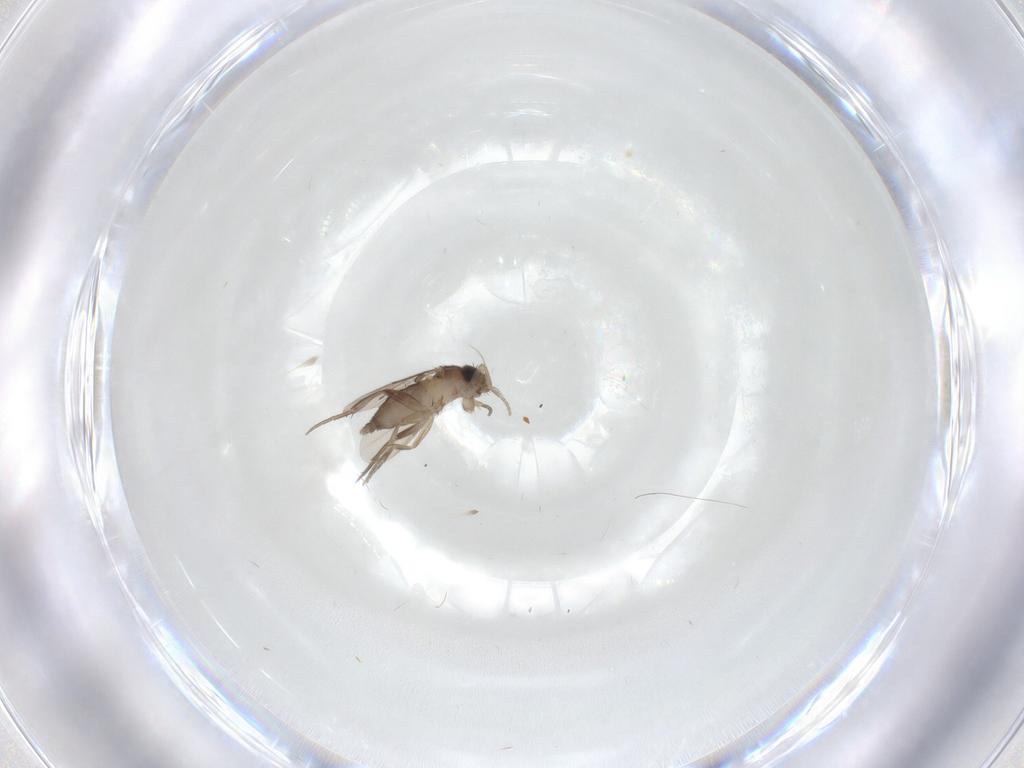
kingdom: Animalia
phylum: Arthropoda
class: Insecta
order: Diptera
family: Phoridae
